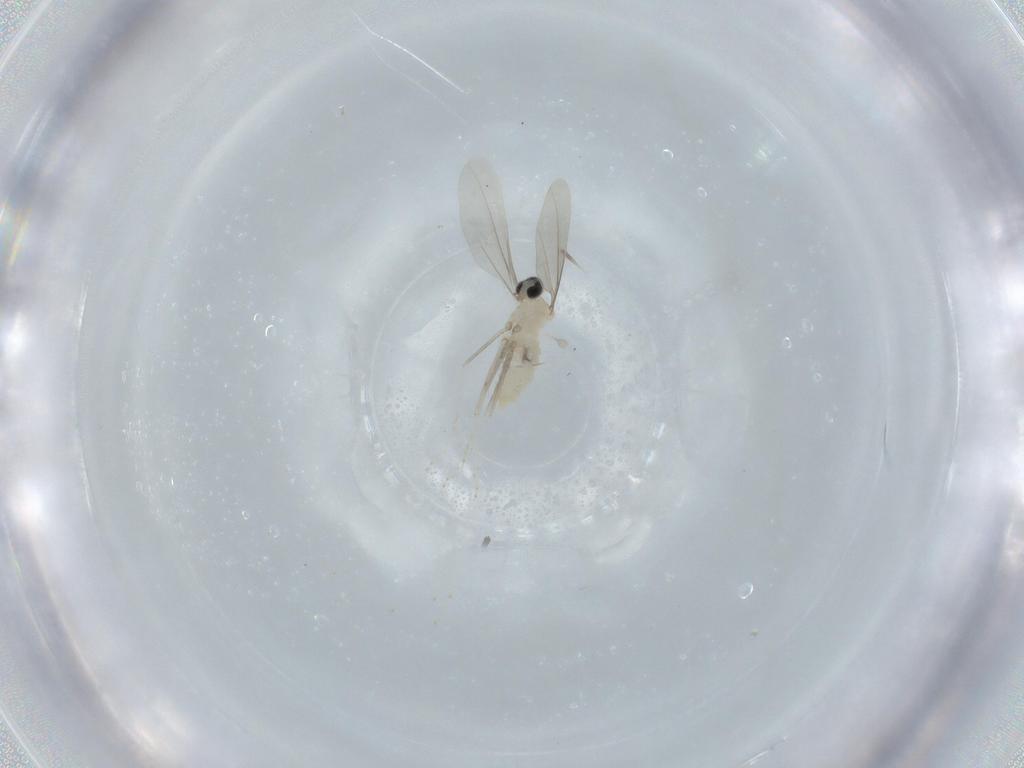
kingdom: Animalia
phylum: Arthropoda
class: Insecta
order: Diptera
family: Cecidomyiidae
